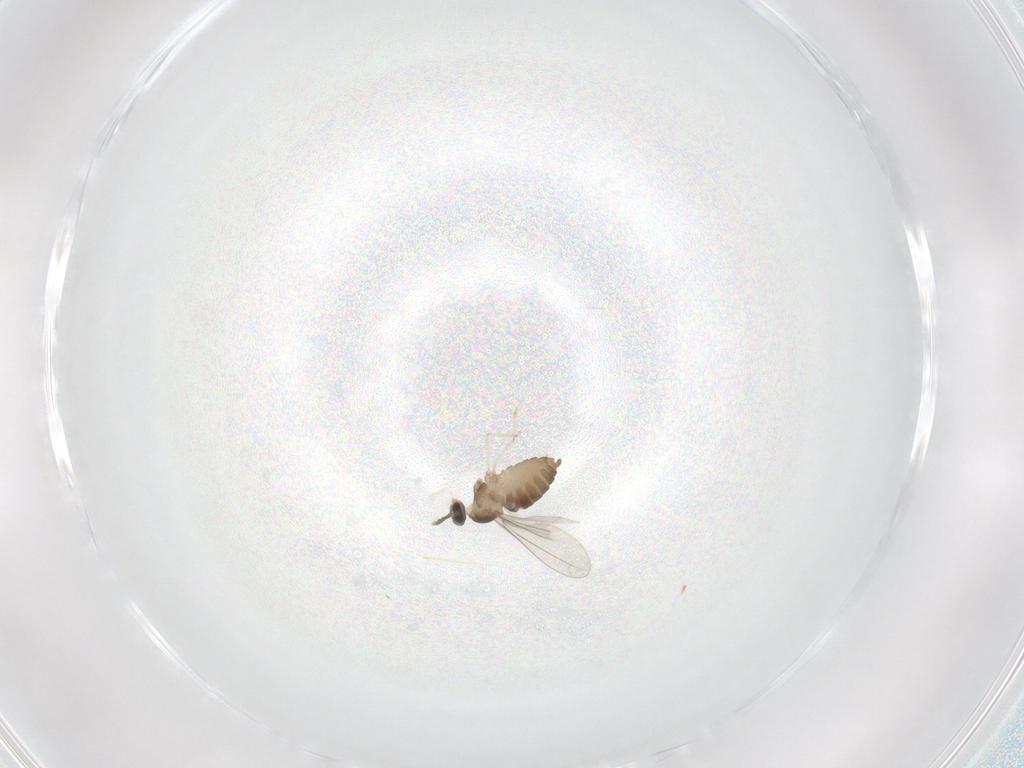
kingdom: Animalia
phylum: Arthropoda
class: Insecta
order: Diptera
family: Cecidomyiidae
